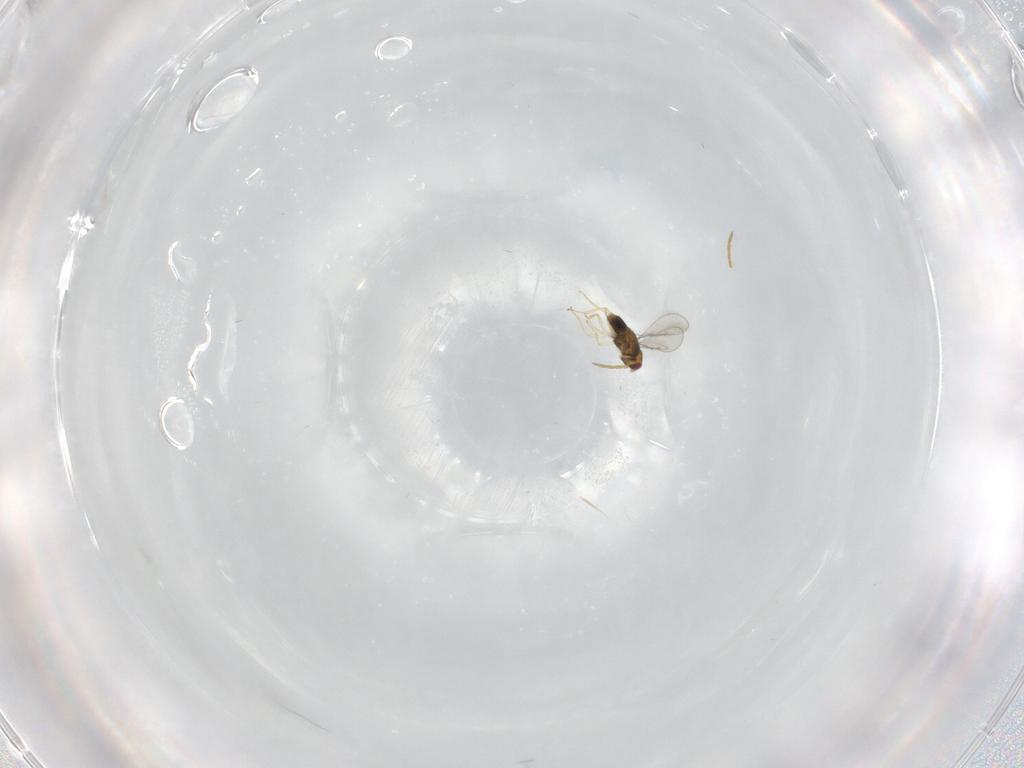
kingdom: Animalia
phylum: Arthropoda
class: Insecta
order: Hymenoptera
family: Aphelinidae
